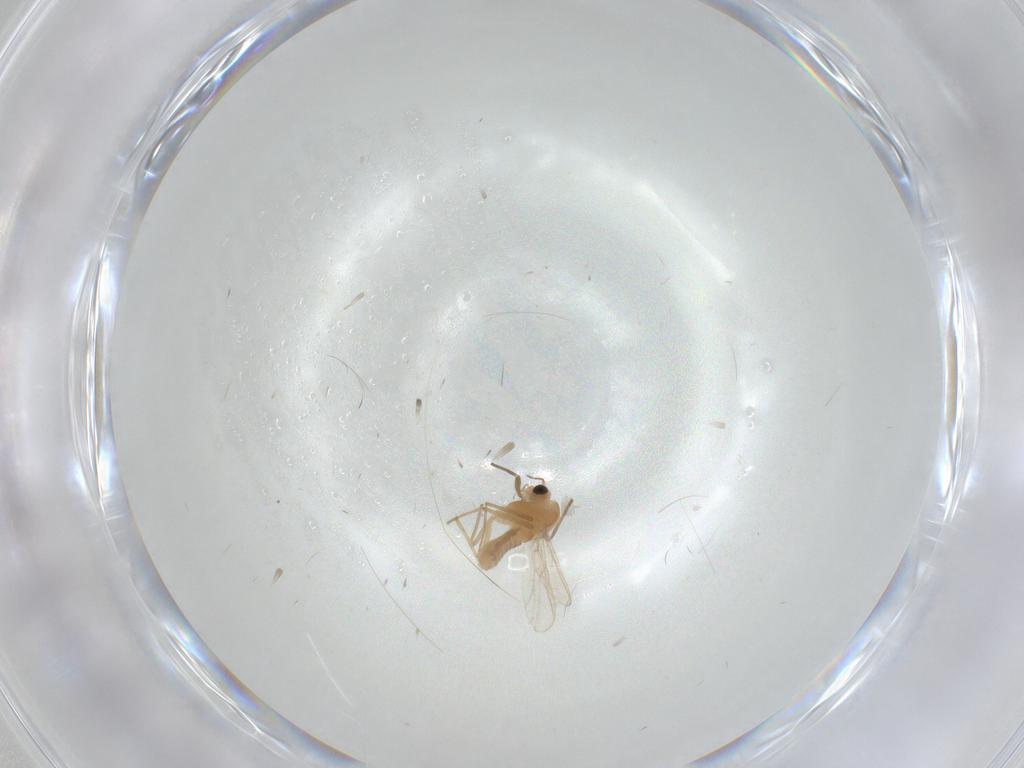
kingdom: Animalia
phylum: Arthropoda
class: Insecta
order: Diptera
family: Chironomidae
